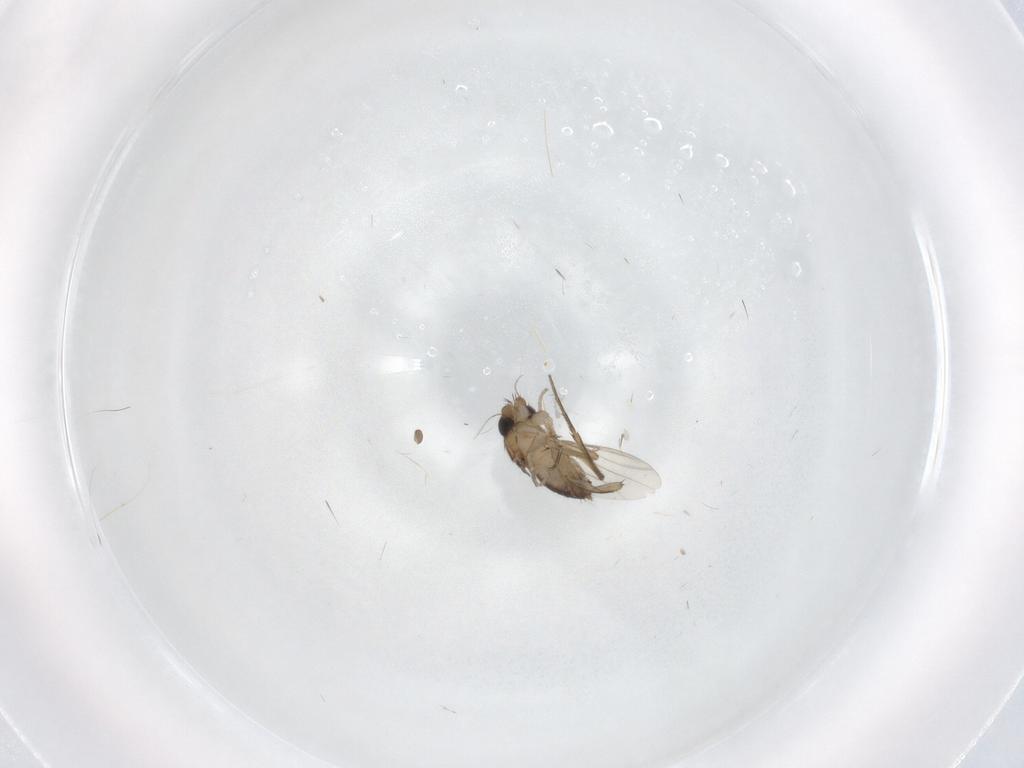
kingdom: Animalia
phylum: Arthropoda
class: Insecta
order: Diptera
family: Phoridae
